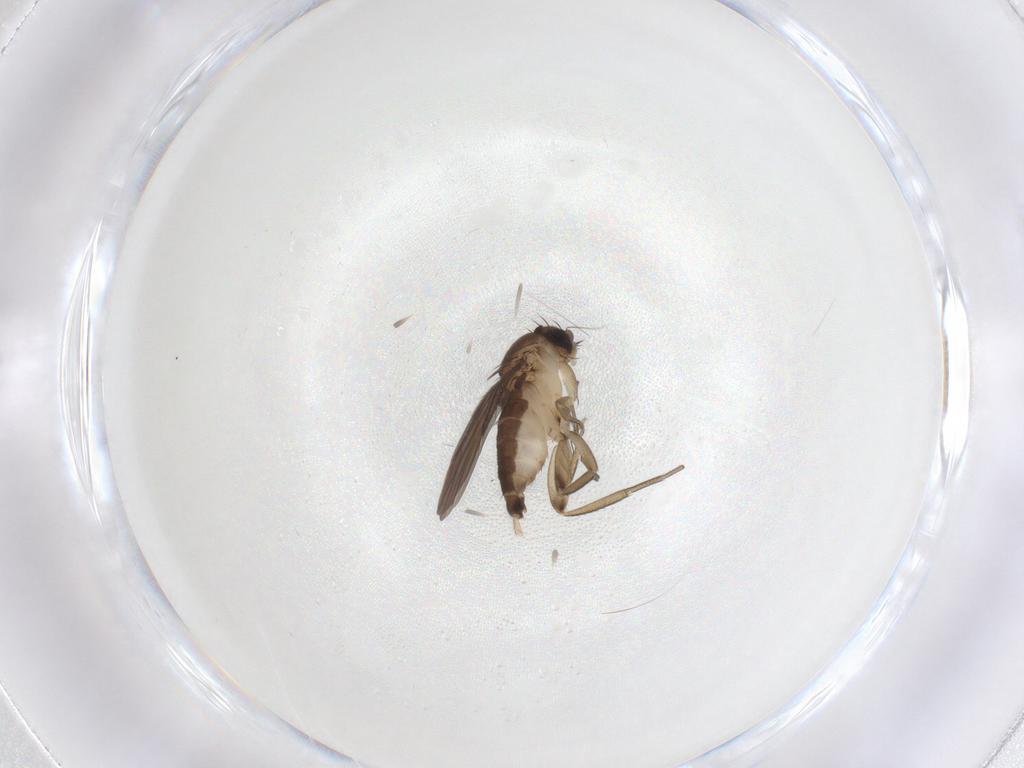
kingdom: Animalia
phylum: Arthropoda
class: Insecta
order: Diptera
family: Phoridae
